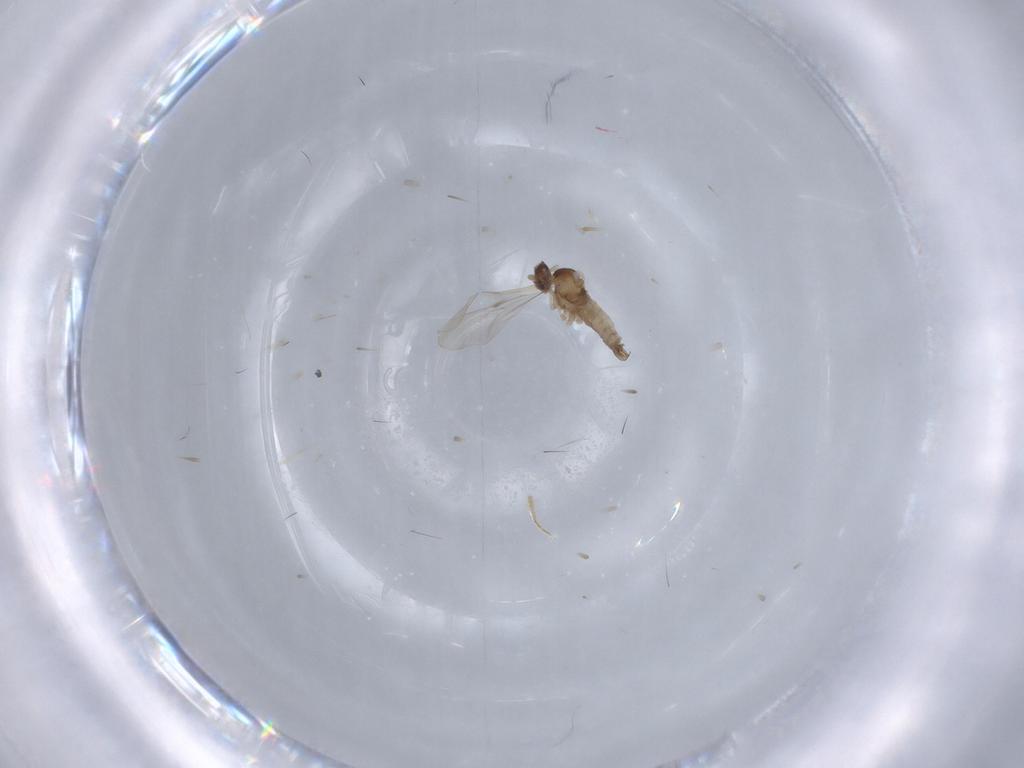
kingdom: Animalia
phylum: Arthropoda
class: Insecta
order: Diptera
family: Cecidomyiidae
